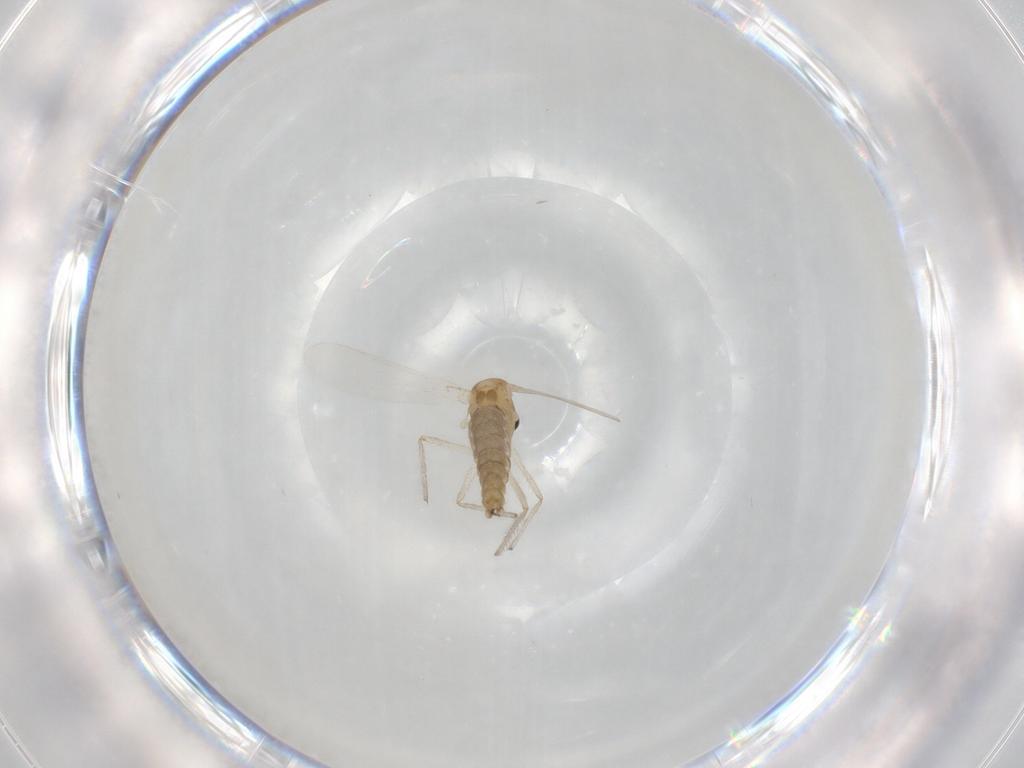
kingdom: Animalia
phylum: Arthropoda
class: Insecta
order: Diptera
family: Chironomidae
